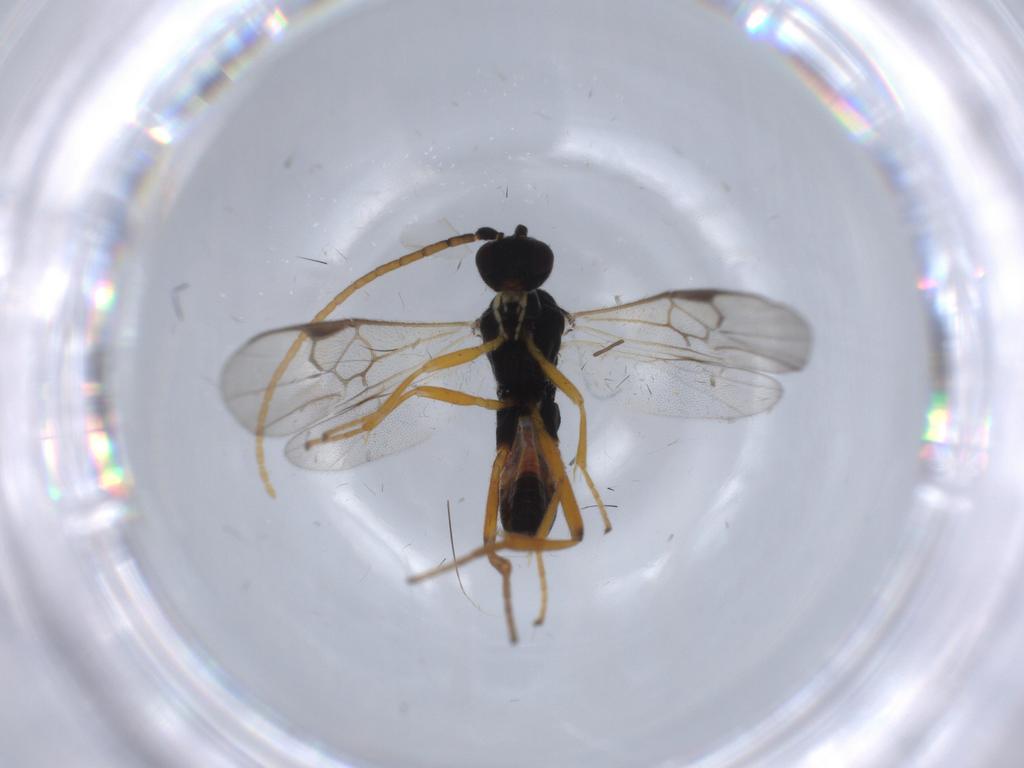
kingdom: Animalia
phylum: Arthropoda
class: Insecta
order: Hymenoptera
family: Braconidae
